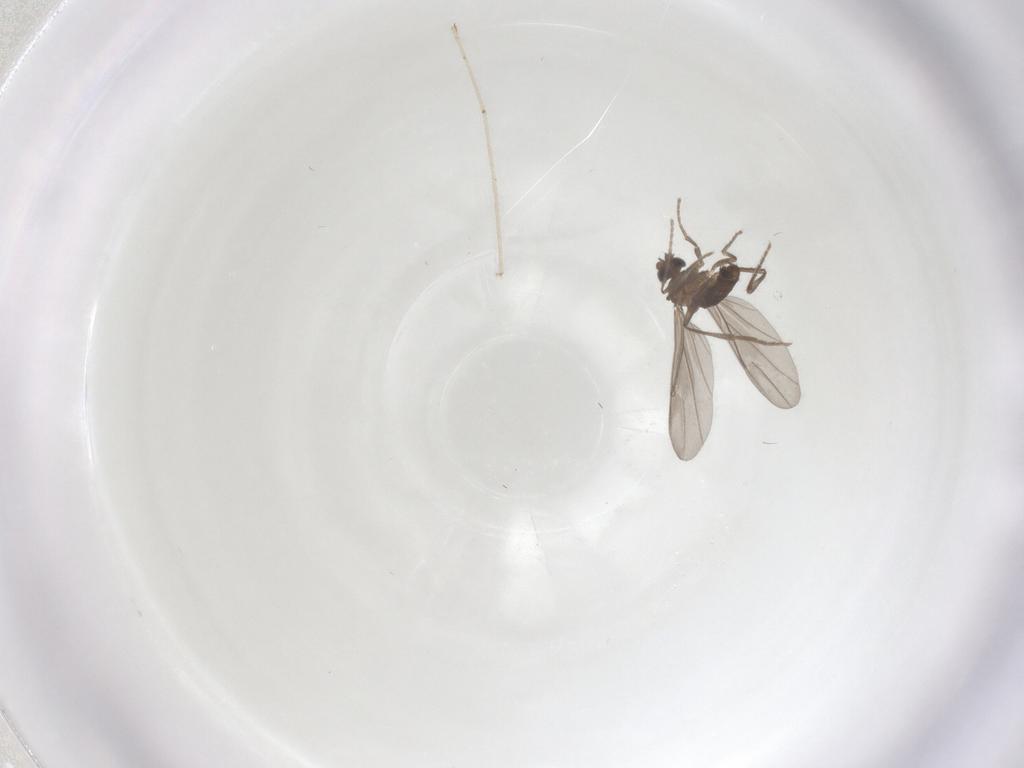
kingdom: Animalia
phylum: Arthropoda
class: Insecta
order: Diptera
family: Phoridae
